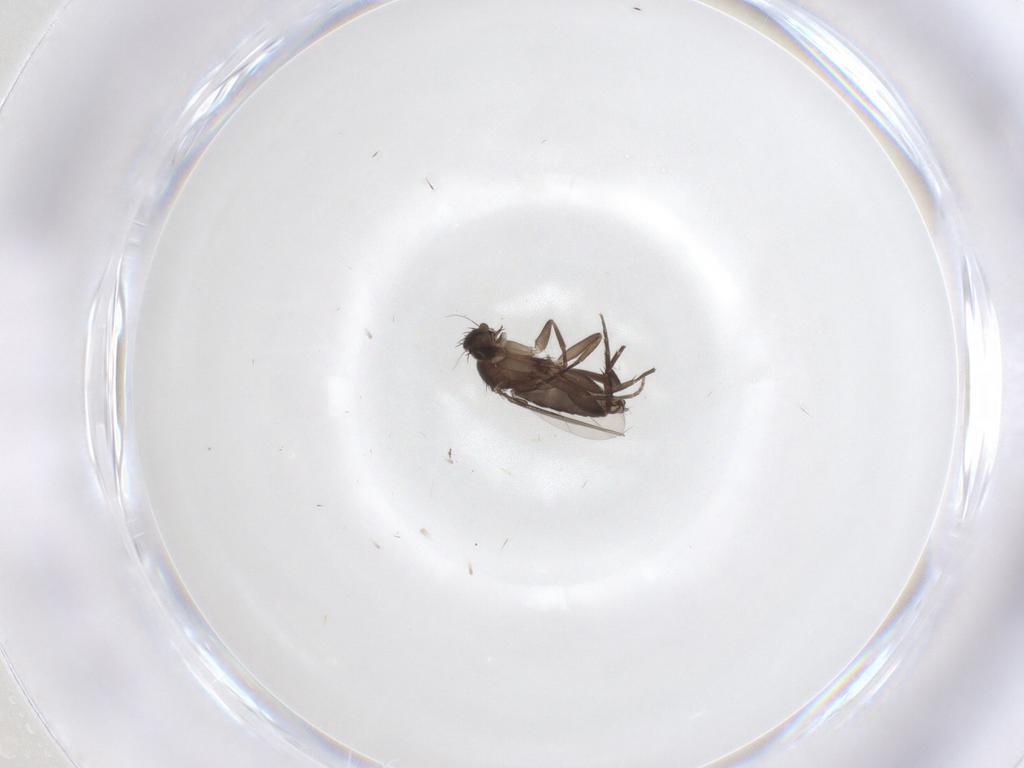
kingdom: Animalia
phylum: Arthropoda
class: Insecta
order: Diptera
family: Phoridae
